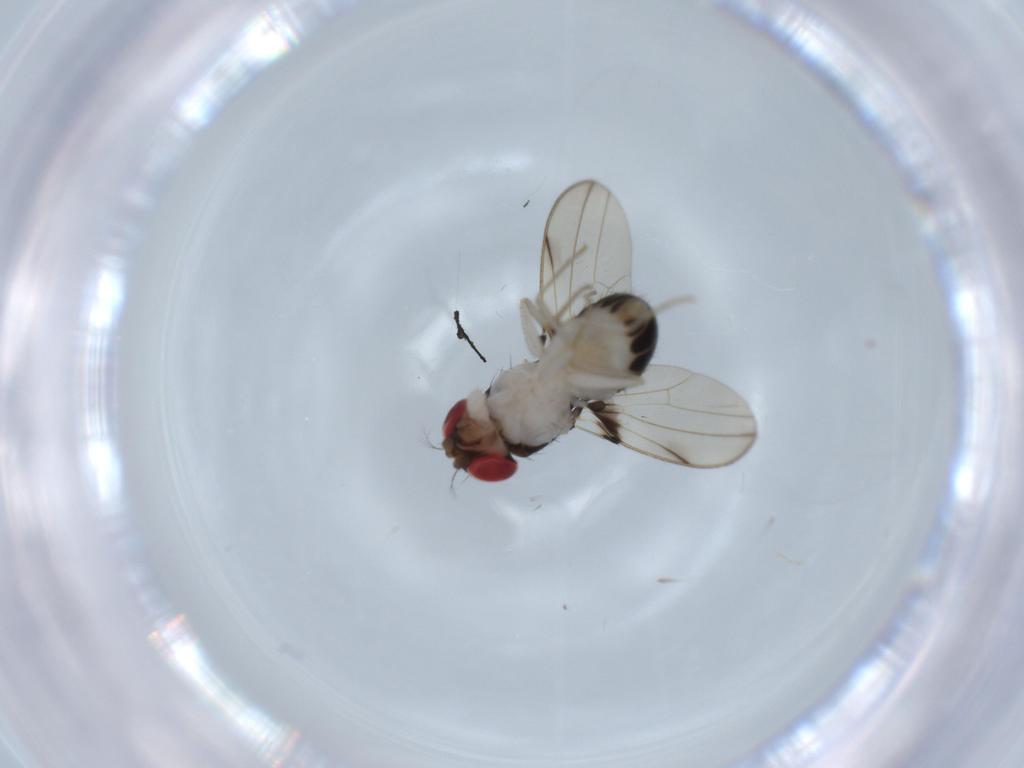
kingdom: Animalia
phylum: Arthropoda
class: Insecta
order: Diptera
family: Drosophilidae
